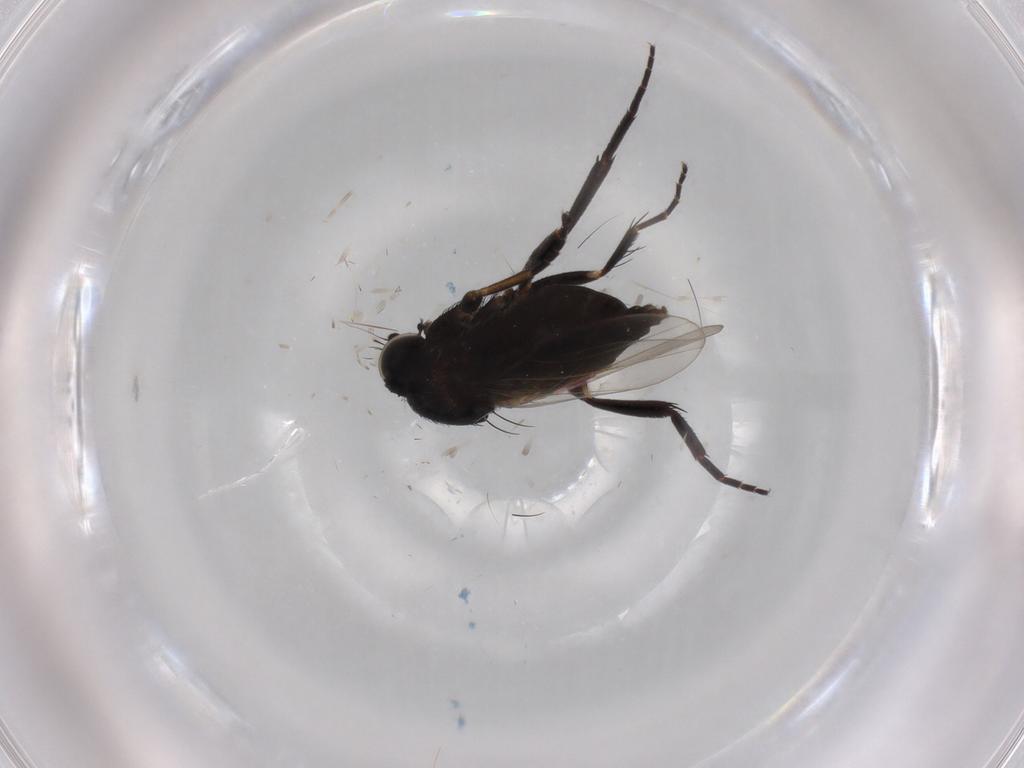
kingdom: Animalia
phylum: Arthropoda
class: Insecta
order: Diptera
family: Phoridae
